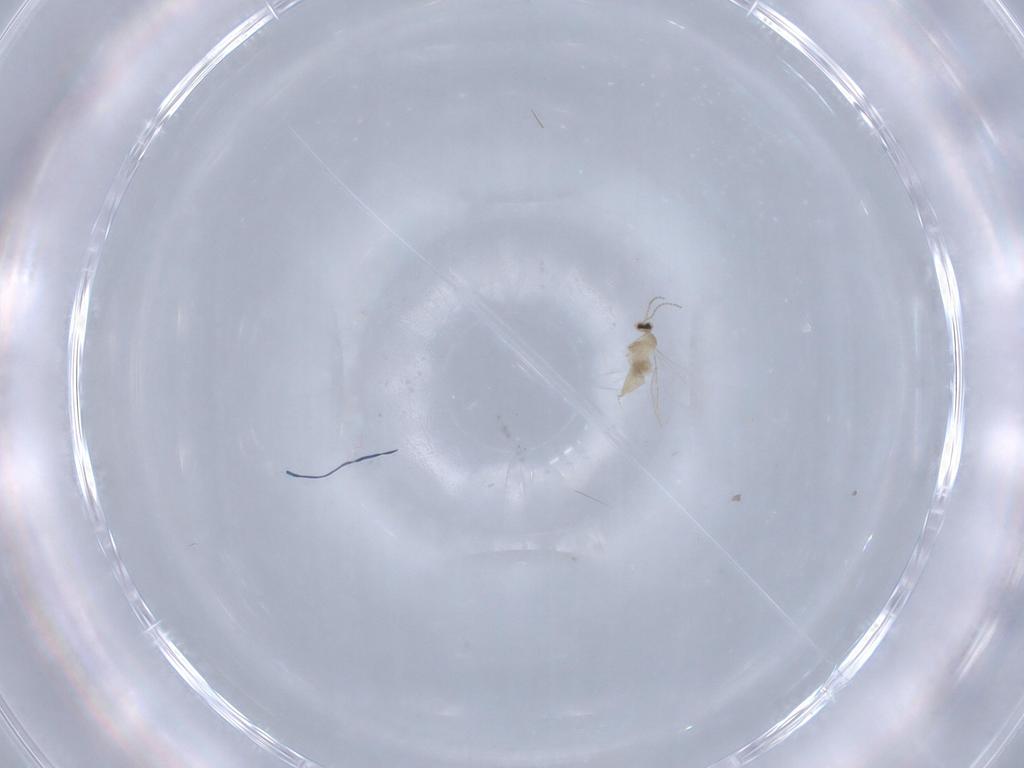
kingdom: Animalia
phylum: Arthropoda
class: Insecta
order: Diptera
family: Cecidomyiidae
